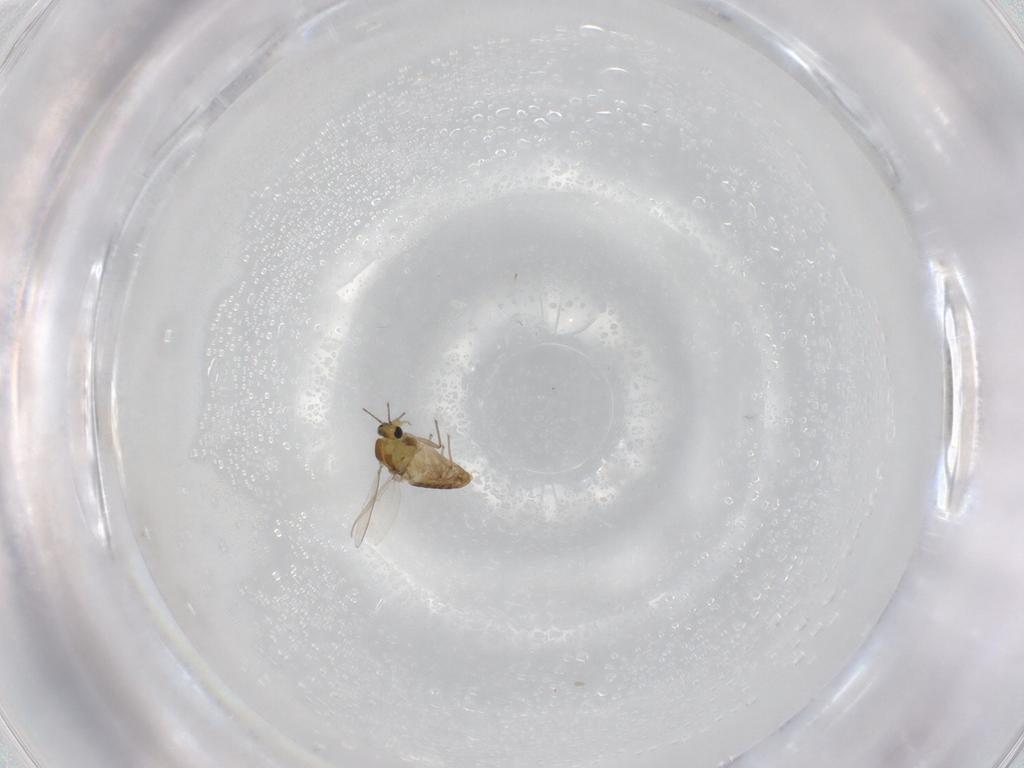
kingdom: Animalia
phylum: Arthropoda
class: Insecta
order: Diptera
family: Chironomidae
